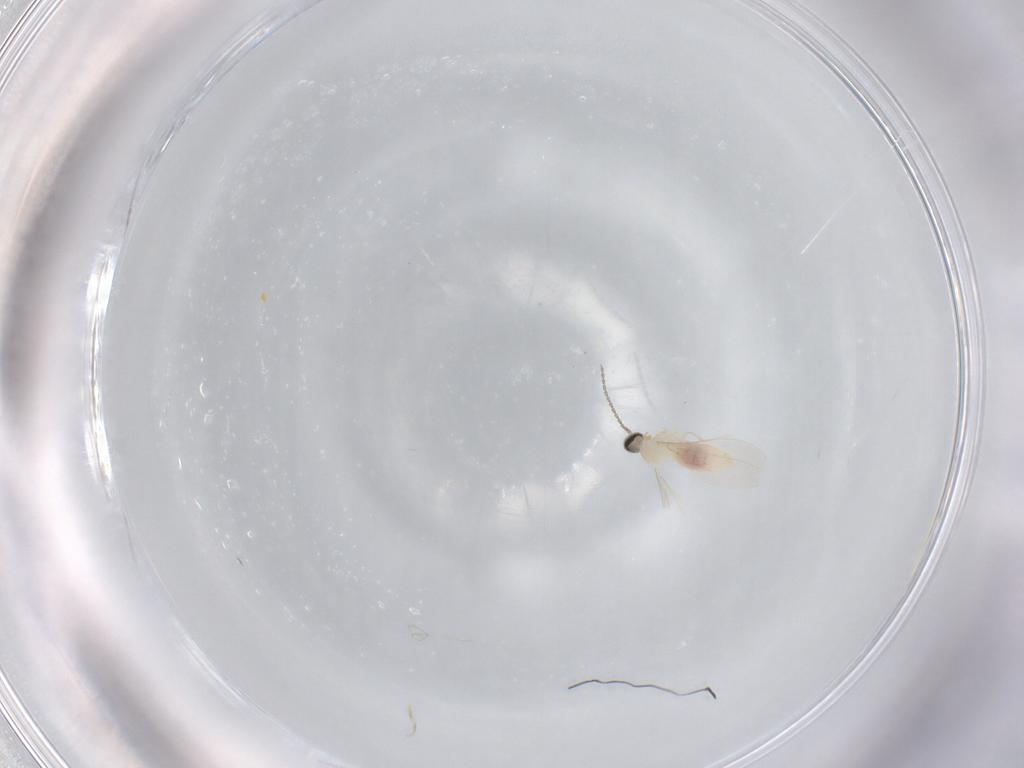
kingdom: Animalia
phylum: Arthropoda
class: Insecta
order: Diptera
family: Cecidomyiidae
